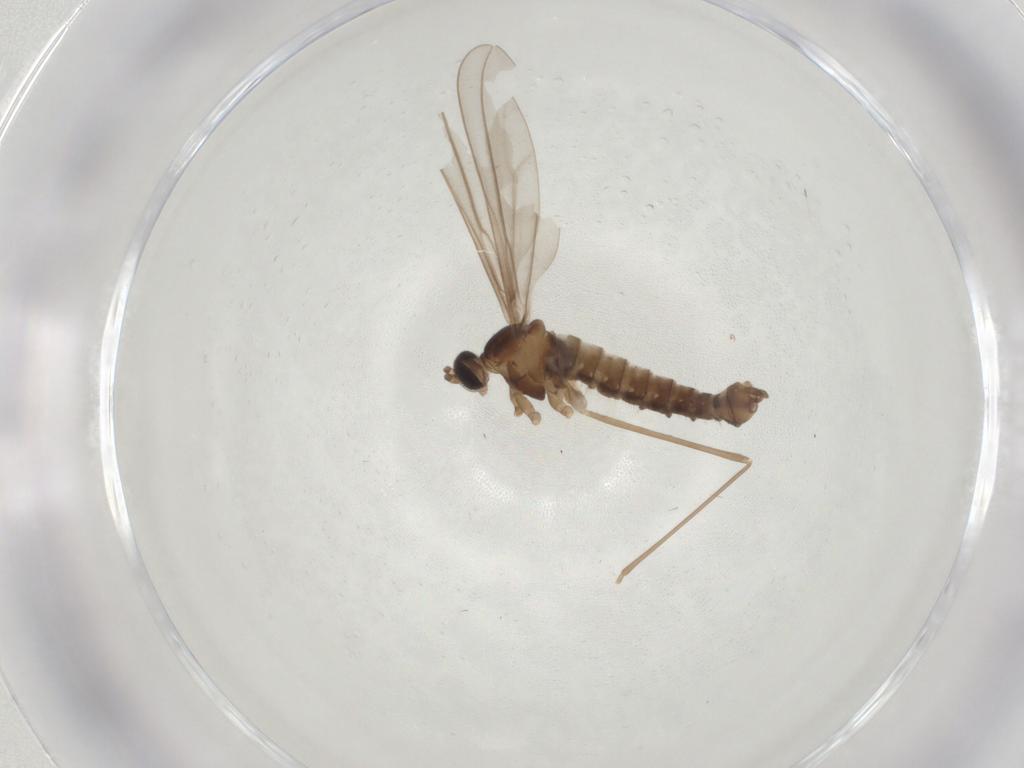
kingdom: Animalia
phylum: Arthropoda
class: Insecta
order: Diptera
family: Cecidomyiidae
